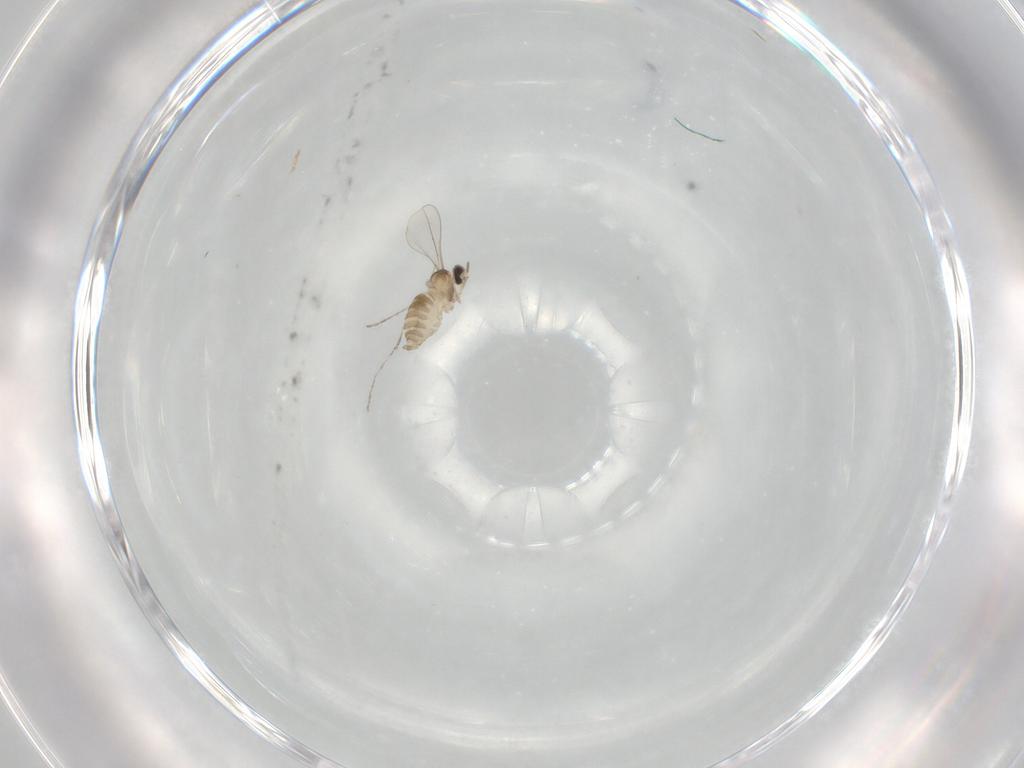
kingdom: Animalia
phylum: Arthropoda
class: Insecta
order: Diptera
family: Cecidomyiidae
